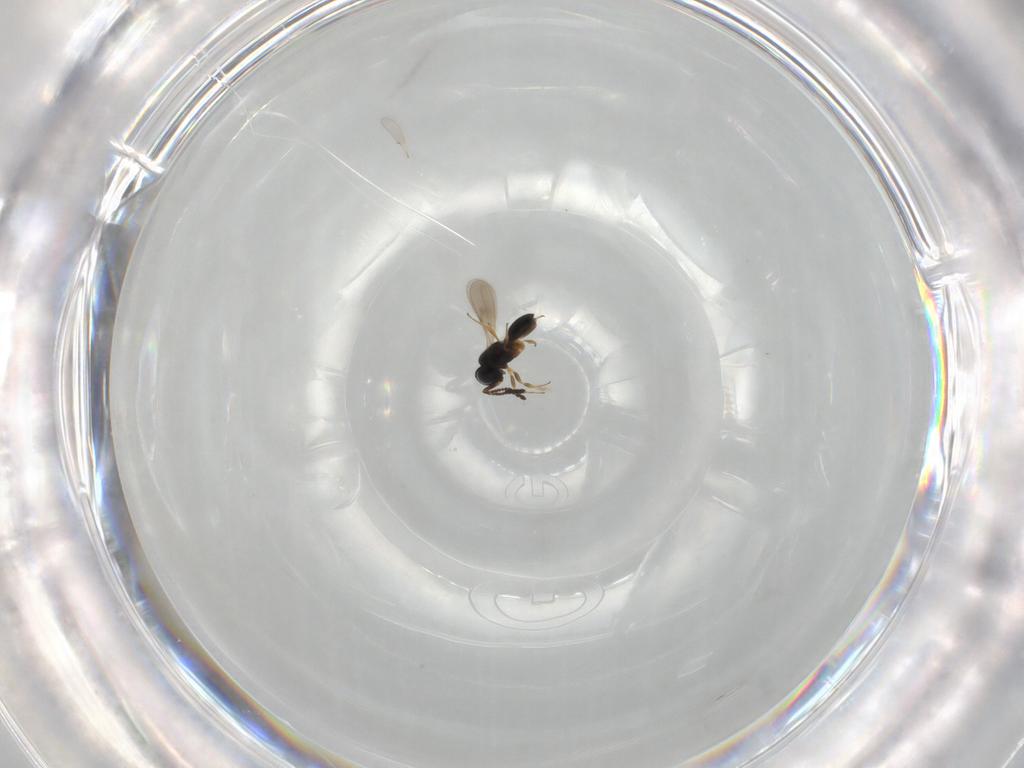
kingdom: Animalia
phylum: Arthropoda
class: Insecta
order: Hymenoptera
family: Scelionidae
